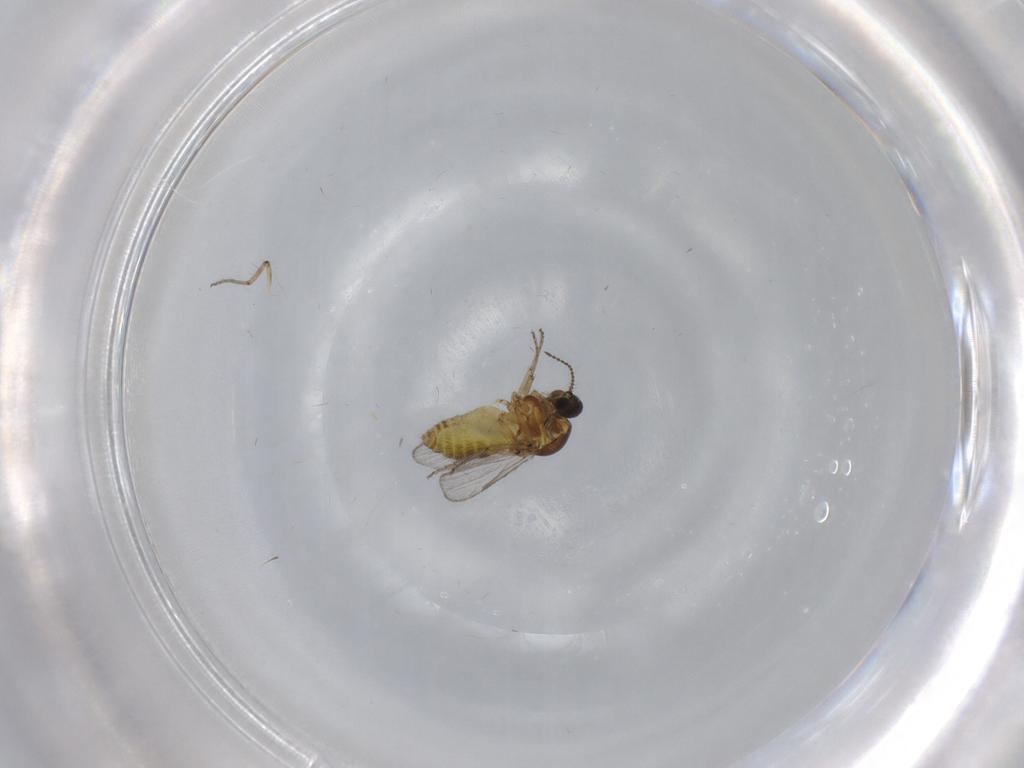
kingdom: Animalia
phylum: Arthropoda
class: Insecta
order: Diptera
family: Ceratopogonidae
